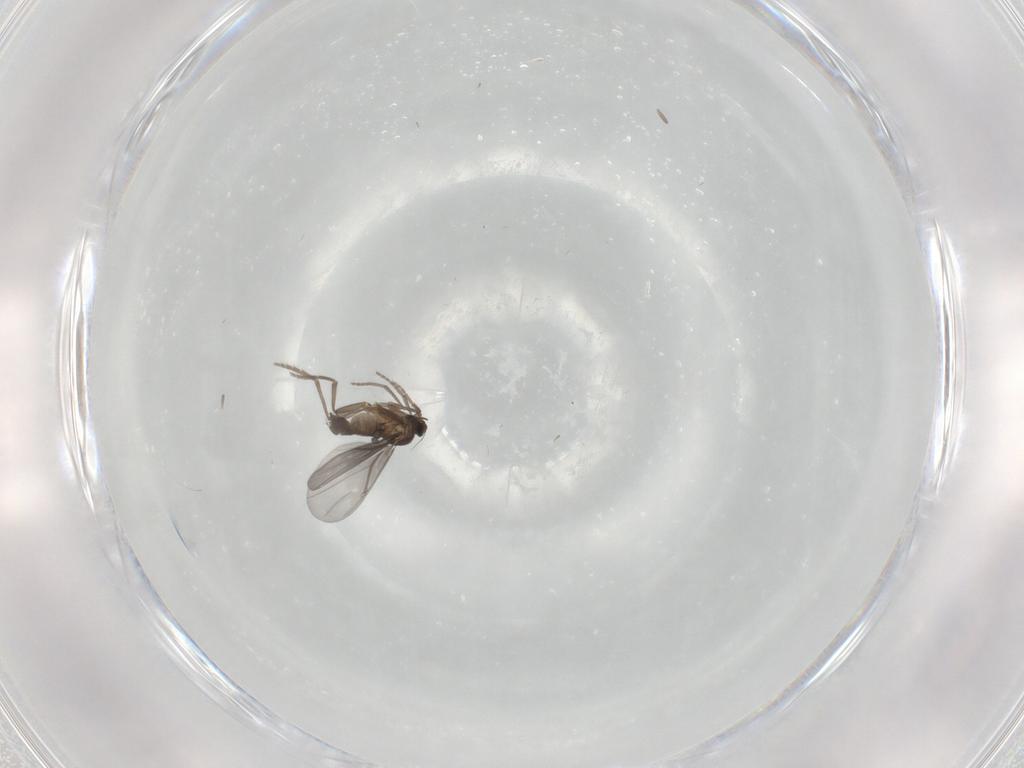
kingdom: Animalia
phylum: Arthropoda
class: Insecta
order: Diptera
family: Phoridae
